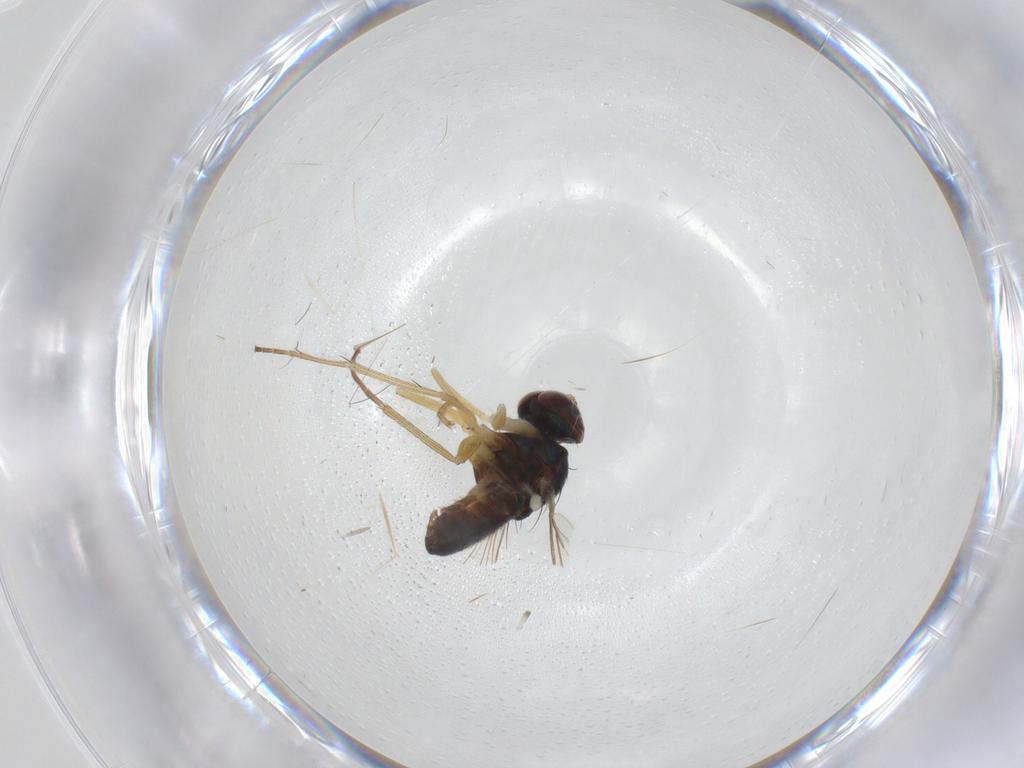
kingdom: Animalia
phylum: Arthropoda
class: Insecta
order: Diptera
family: Dolichopodidae
